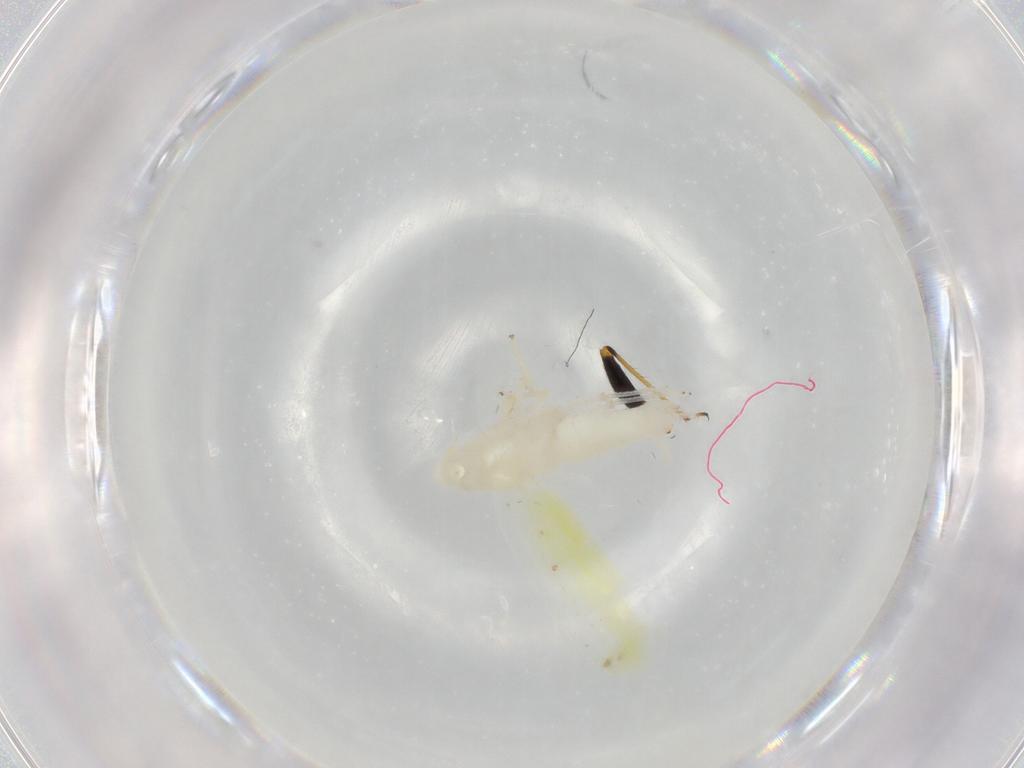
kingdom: Animalia
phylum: Arthropoda
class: Insecta
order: Hemiptera
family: Cicadellidae
